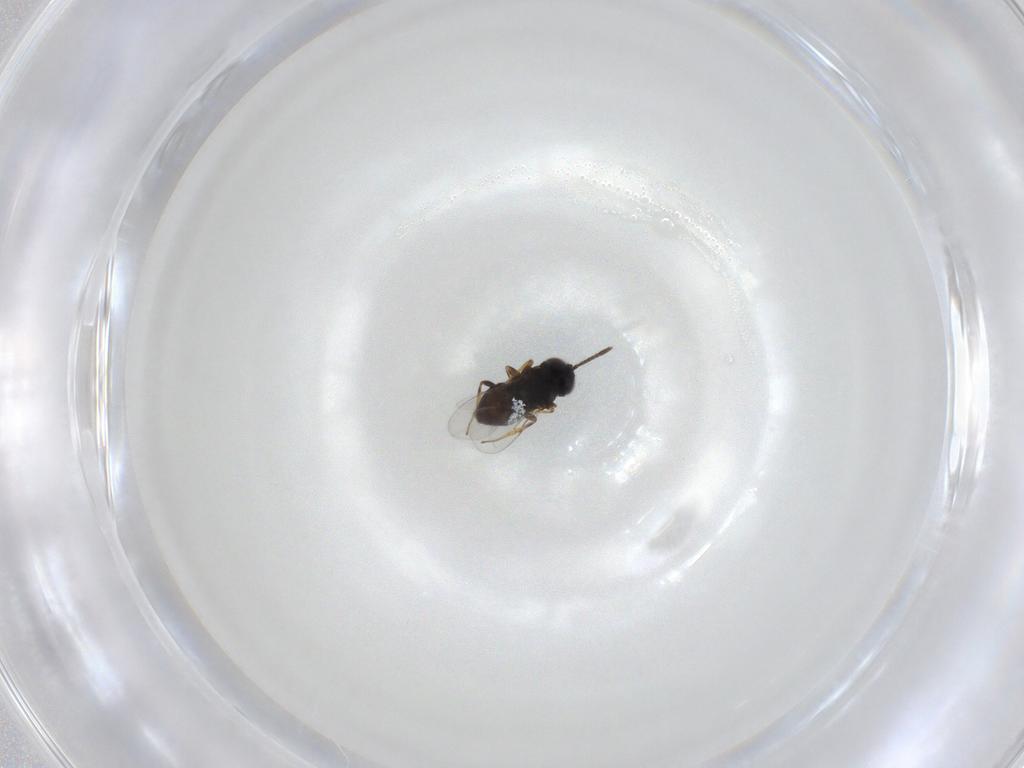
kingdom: Animalia
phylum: Arthropoda
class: Insecta
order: Hymenoptera
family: Encyrtidae
